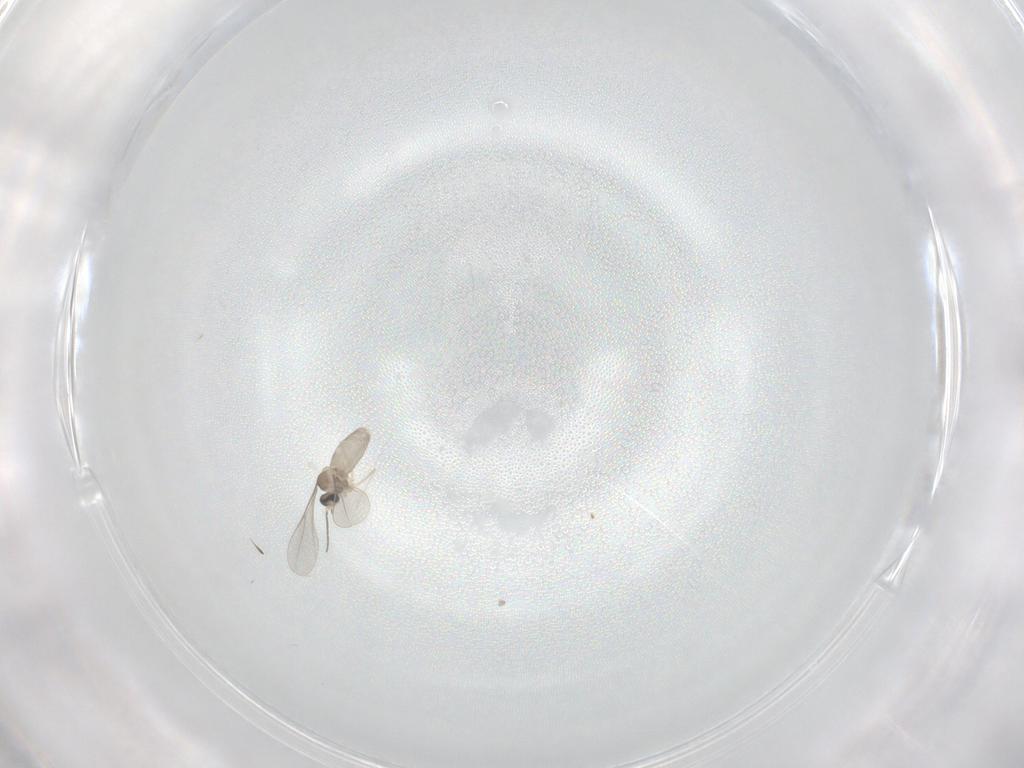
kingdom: Animalia
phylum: Arthropoda
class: Insecta
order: Diptera
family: Cecidomyiidae
